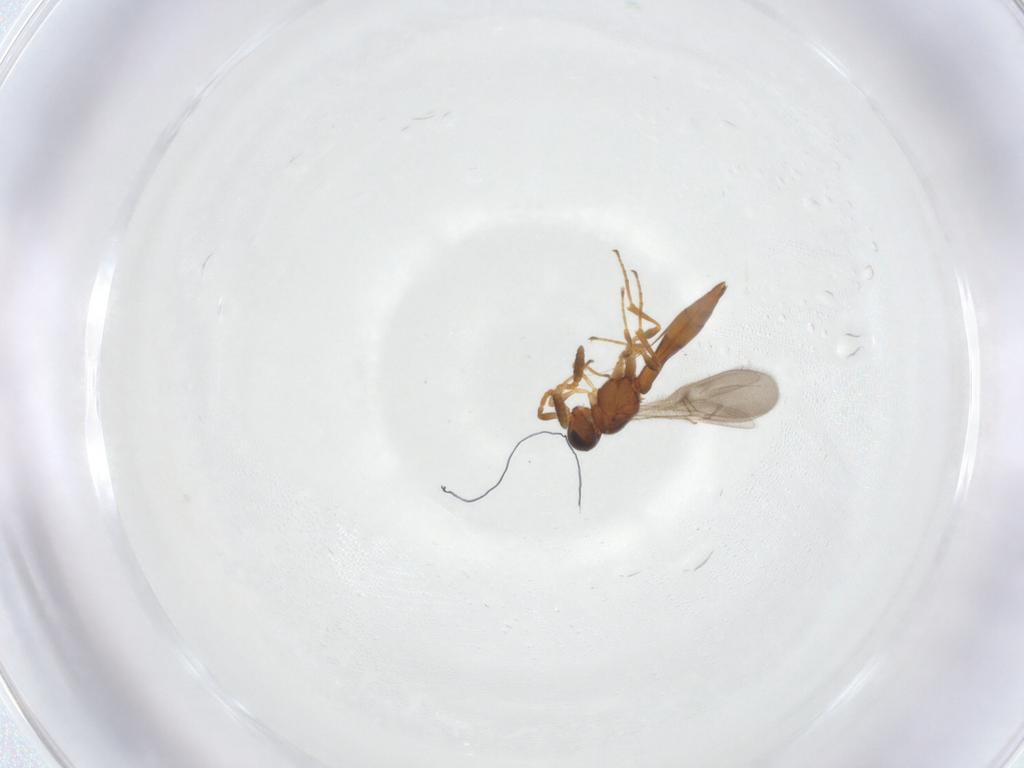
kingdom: Animalia
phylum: Arthropoda
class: Insecta
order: Hymenoptera
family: Scelionidae
